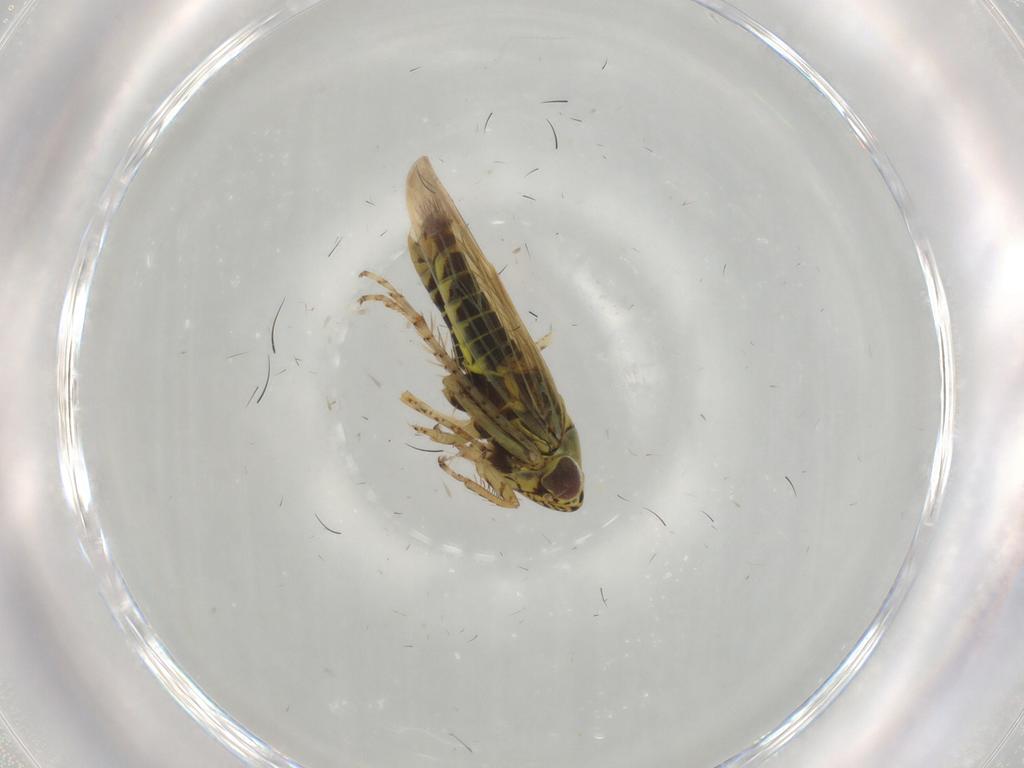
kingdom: Animalia
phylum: Arthropoda
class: Insecta
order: Hemiptera
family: Cicadellidae
